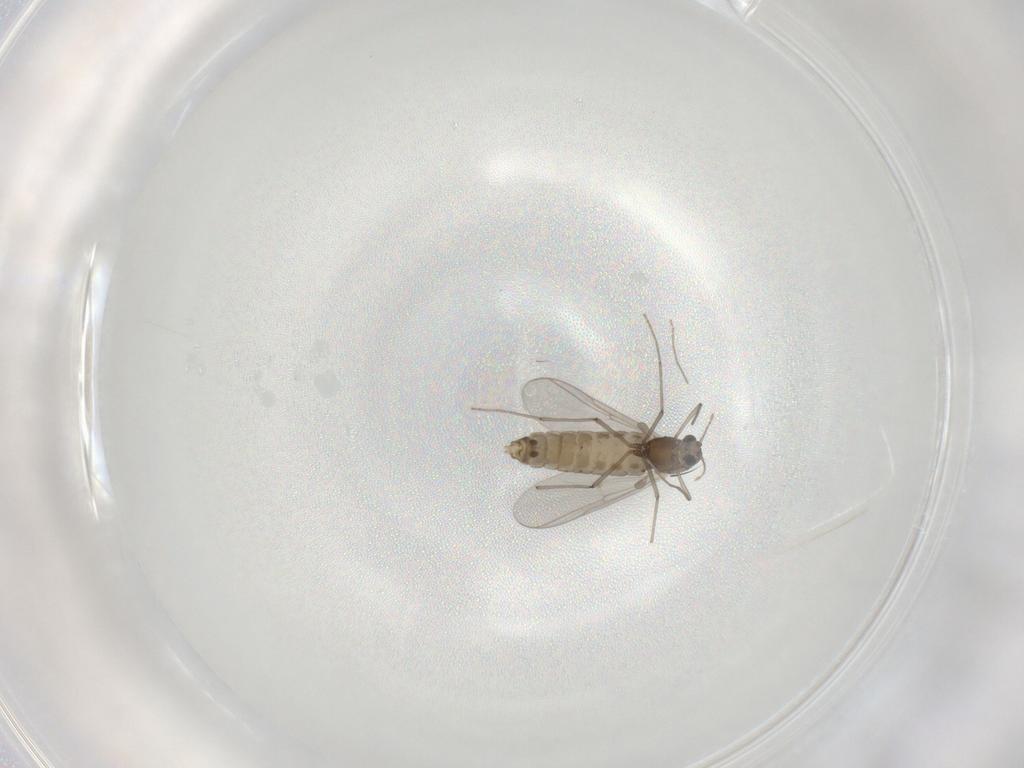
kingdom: Animalia
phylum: Arthropoda
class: Insecta
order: Diptera
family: Chironomidae
